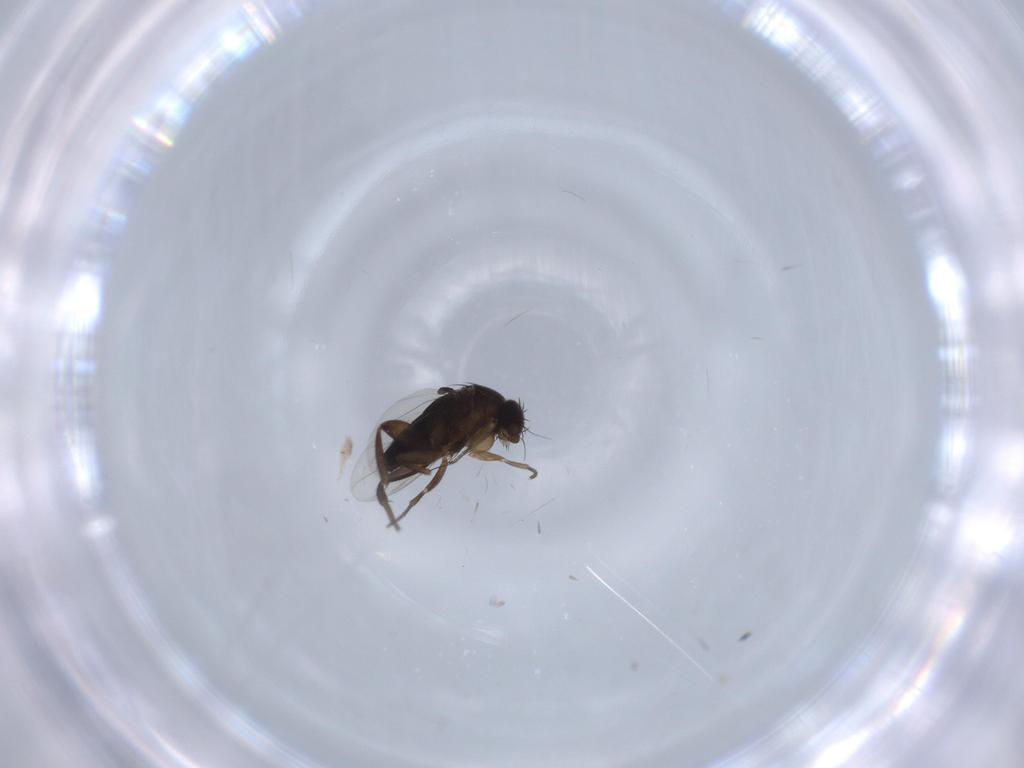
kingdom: Animalia
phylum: Arthropoda
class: Insecta
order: Diptera
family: Phoridae
